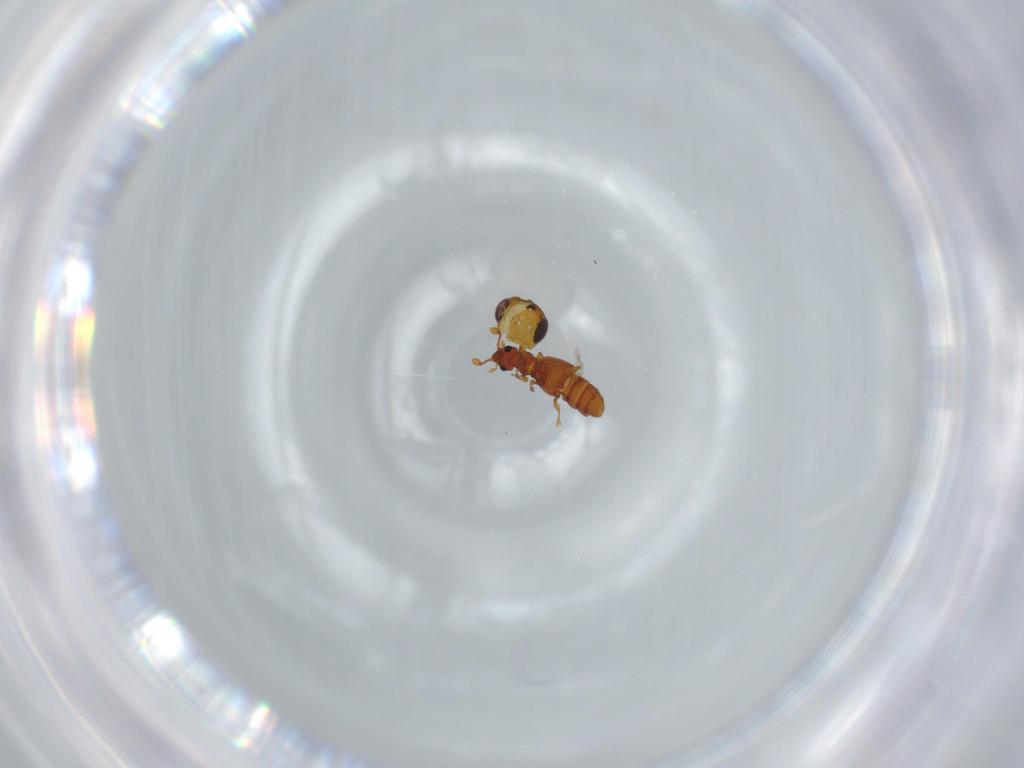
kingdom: Animalia
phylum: Arthropoda
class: Insecta
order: Coleoptera
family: Staphylinidae
